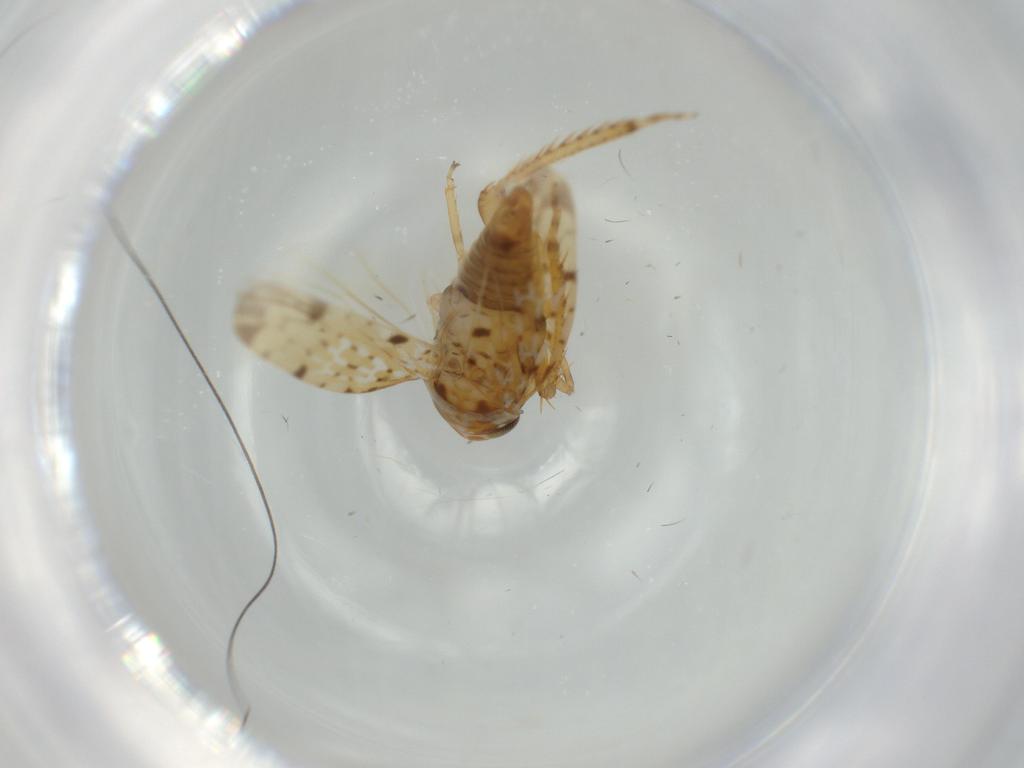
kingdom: Animalia
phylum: Arthropoda
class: Insecta
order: Hemiptera
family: Cicadellidae
